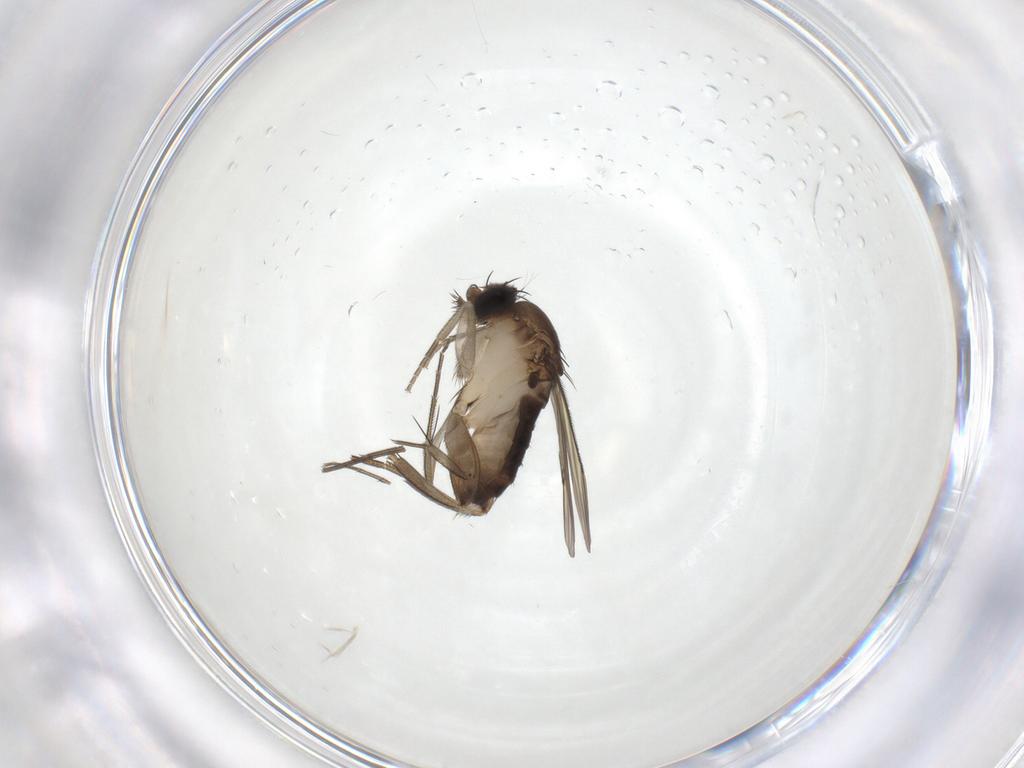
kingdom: Animalia
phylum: Arthropoda
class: Insecta
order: Diptera
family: Phoridae
